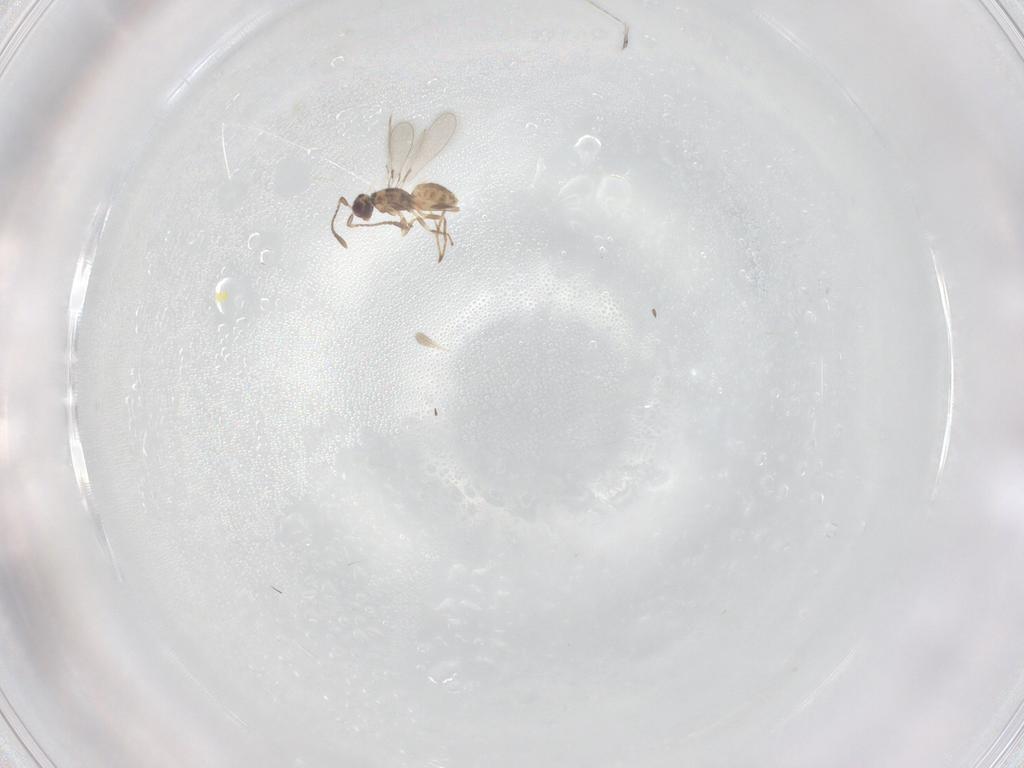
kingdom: Animalia
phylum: Arthropoda
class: Insecta
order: Hymenoptera
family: Mymaridae
